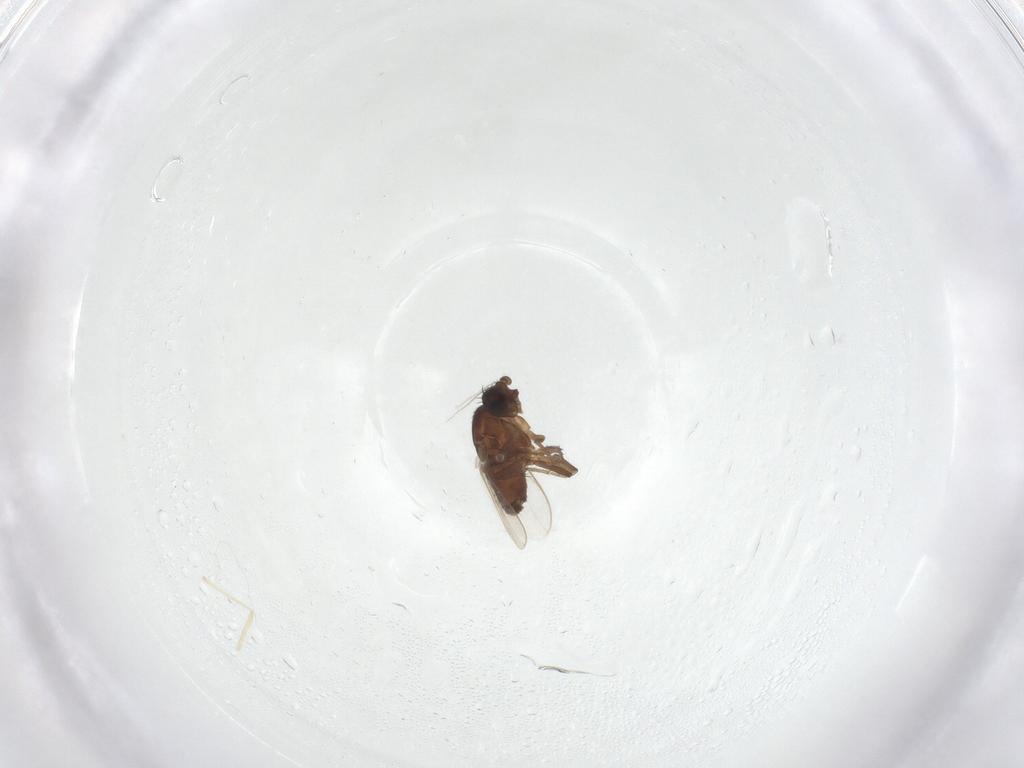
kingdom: Animalia
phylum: Arthropoda
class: Insecta
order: Diptera
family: Sphaeroceridae
